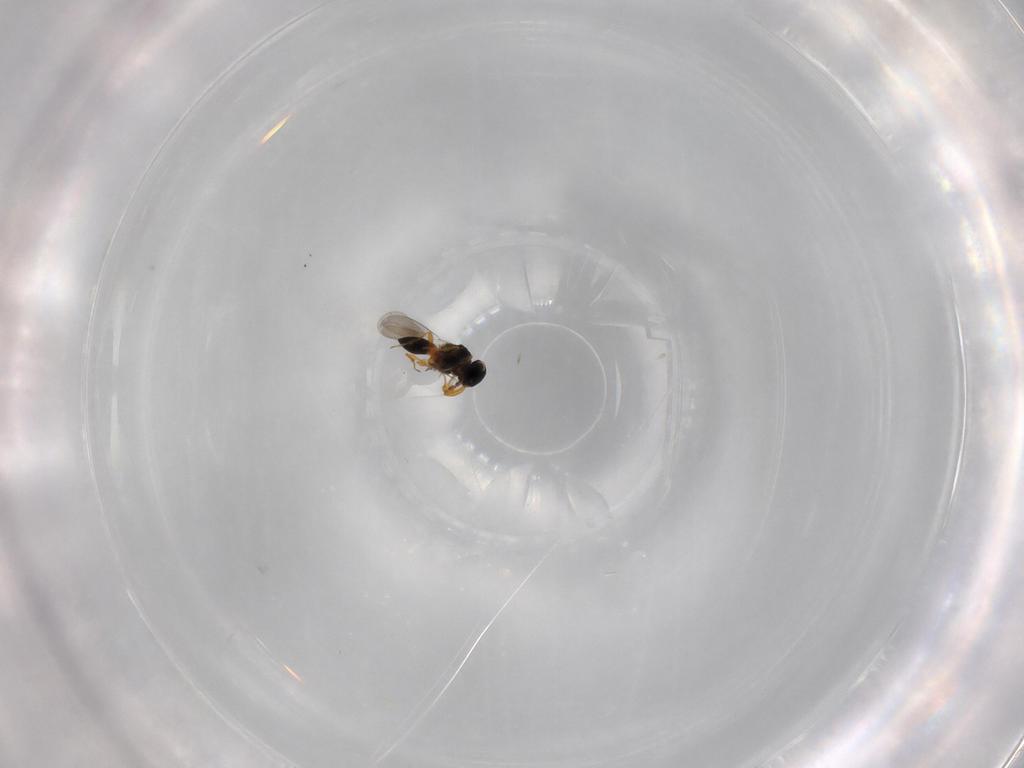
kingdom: Animalia
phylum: Arthropoda
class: Insecta
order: Hymenoptera
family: Platygastridae
